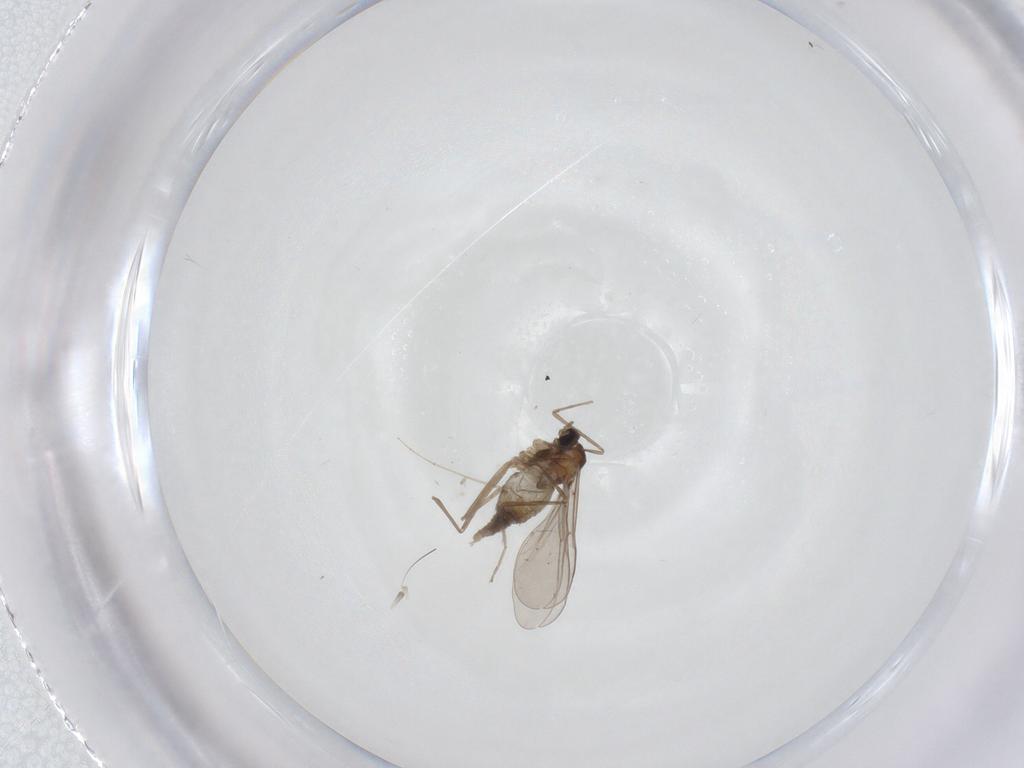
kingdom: Animalia
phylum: Arthropoda
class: Insecta
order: Diptera
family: Cecidomyiidae
